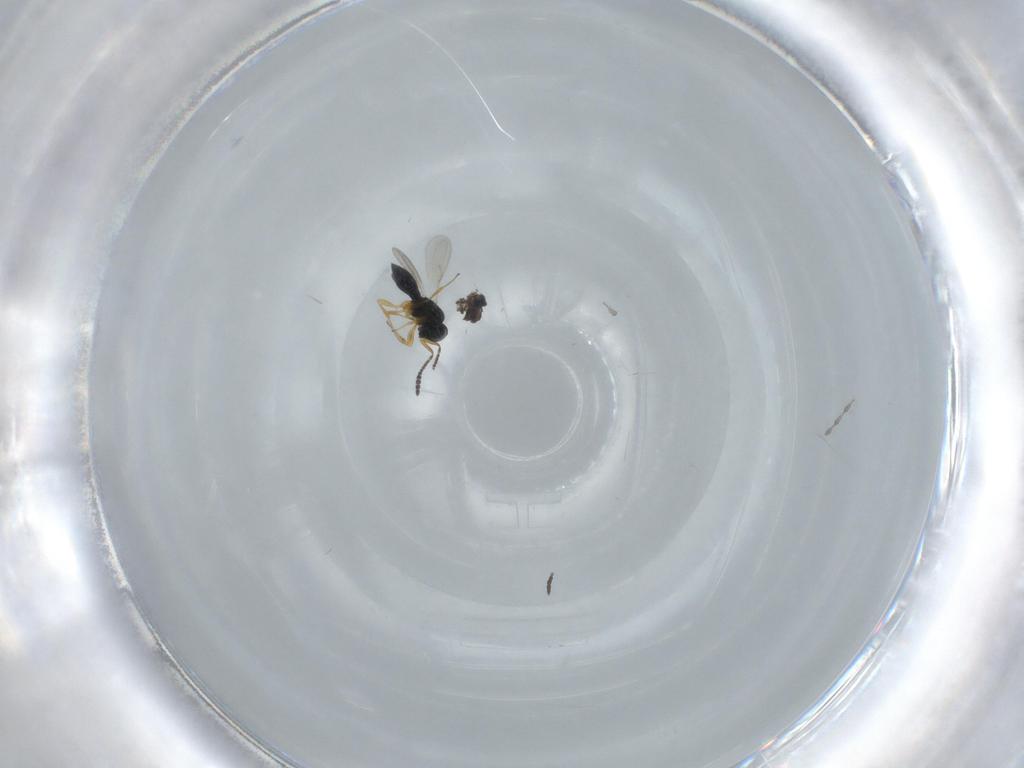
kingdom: Animalia
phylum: Arthropoda
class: Insecta
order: Hymenoptera
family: Scelionidae
